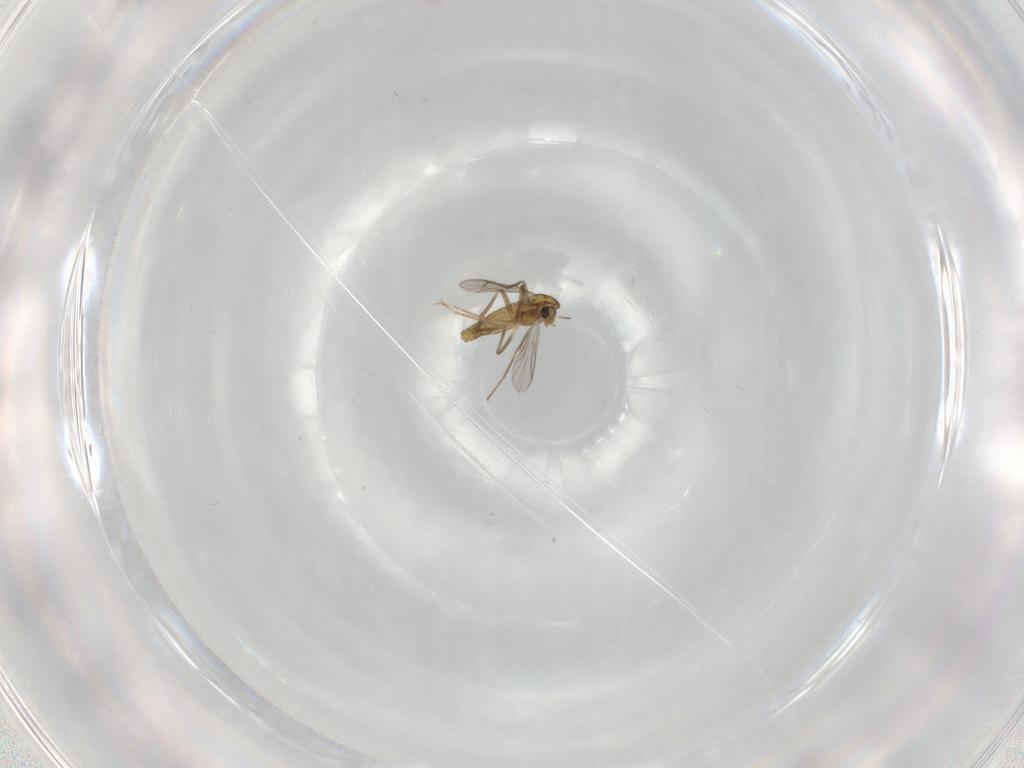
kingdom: Animalia
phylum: Arthropoda
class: Insecta
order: Diptera
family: Chironomidae
